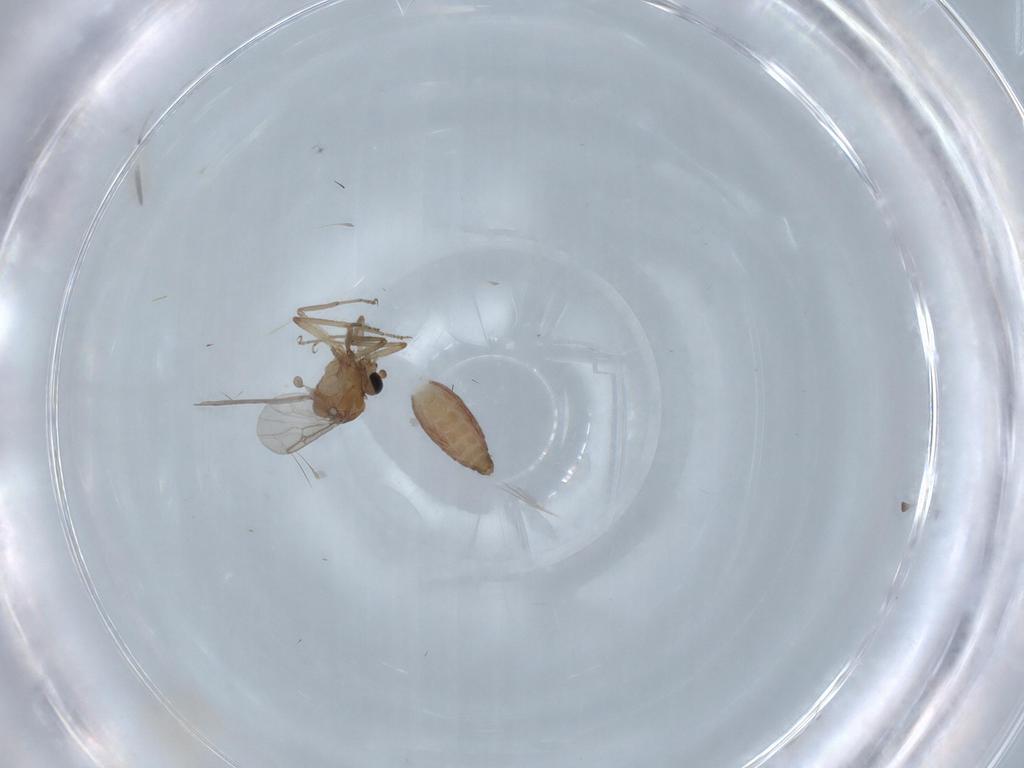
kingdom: Animalia
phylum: Arthropoda
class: Insecta
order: Diptera
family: Ceratopogonidae
